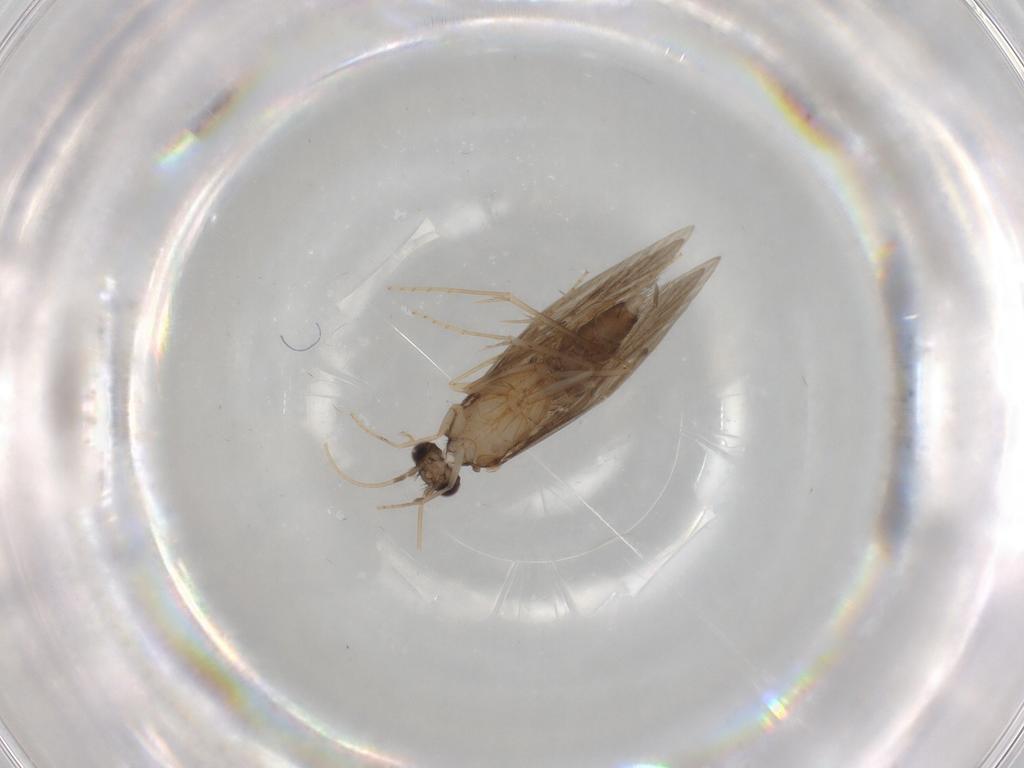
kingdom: Animalia
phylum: Arthropoda
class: Insecta
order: Trichoptera
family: Hydroptilidae
